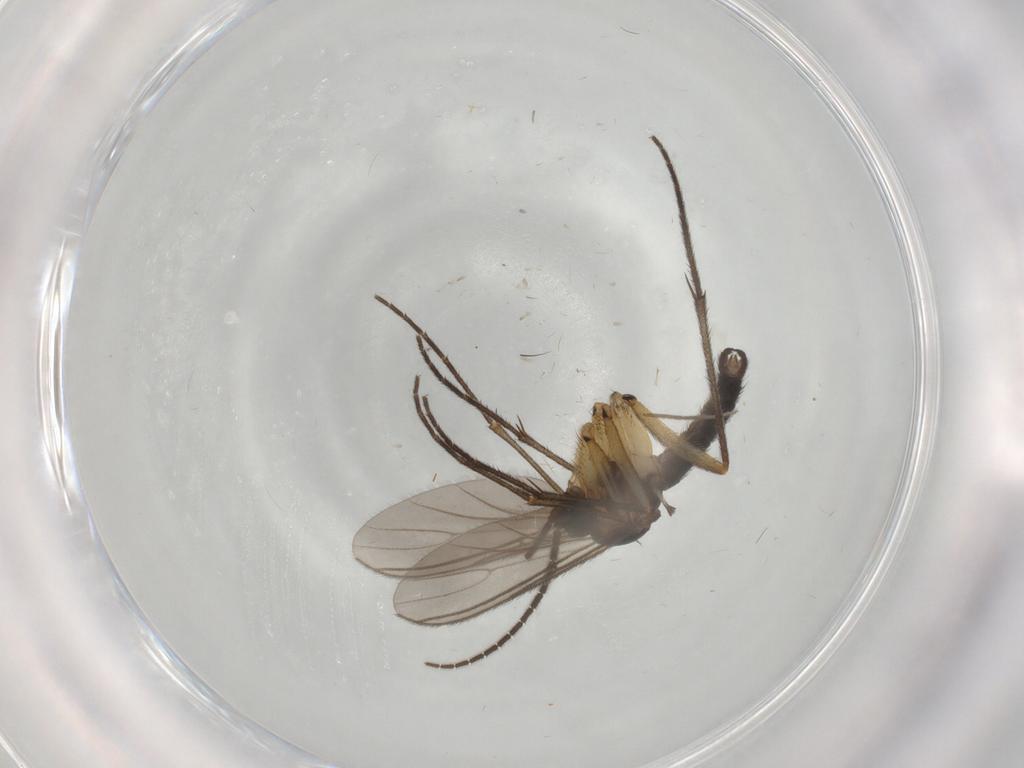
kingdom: Animalia
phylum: Arthropoda
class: Insecta
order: Diptera
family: Sciaridae
